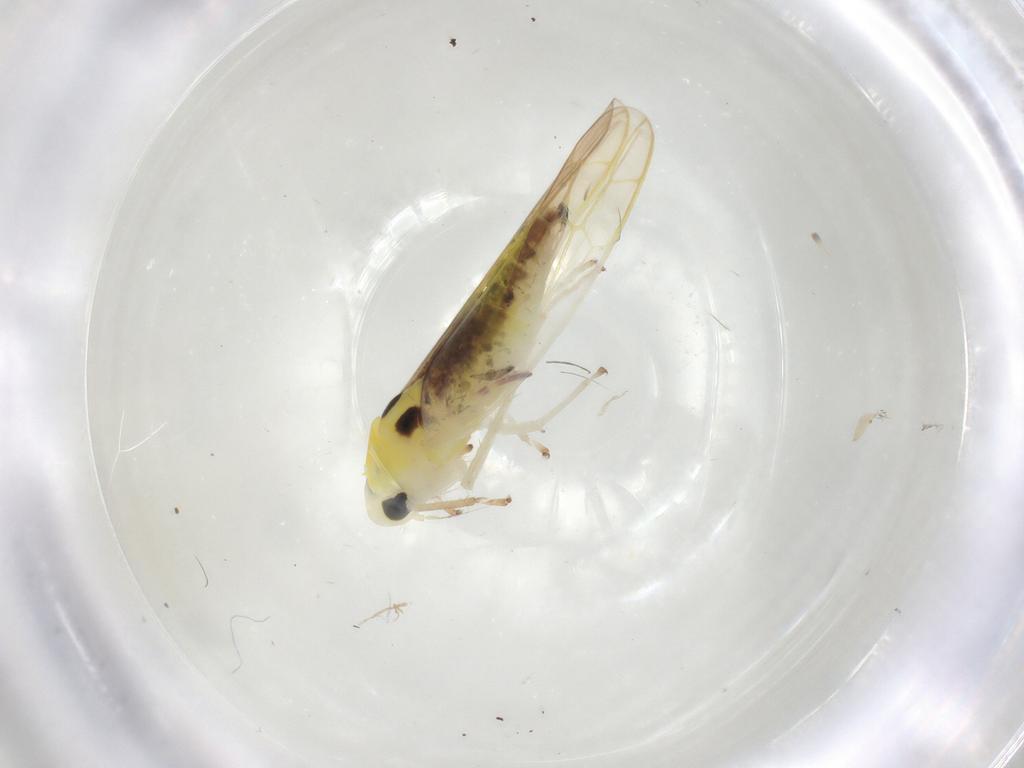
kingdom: Animalia
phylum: Arthropoda
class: Insecta
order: Hemiptera
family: Cicadellidae
